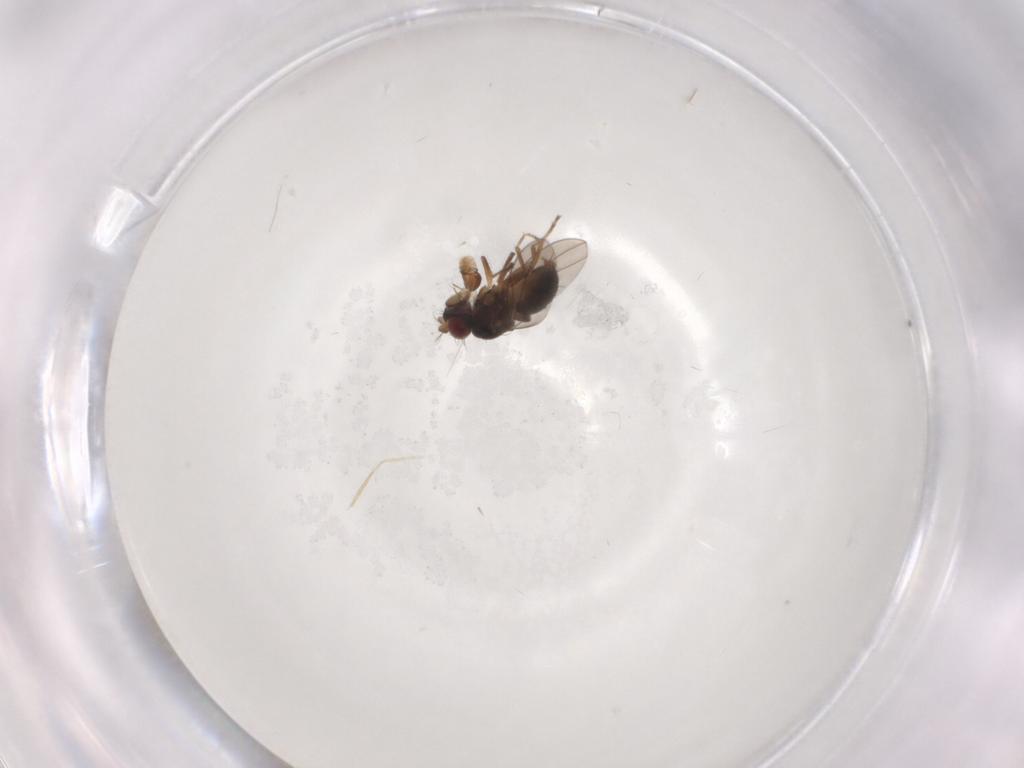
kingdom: Animalia
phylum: Arthropoda
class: Insecta
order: Diptera
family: Ephydridae
